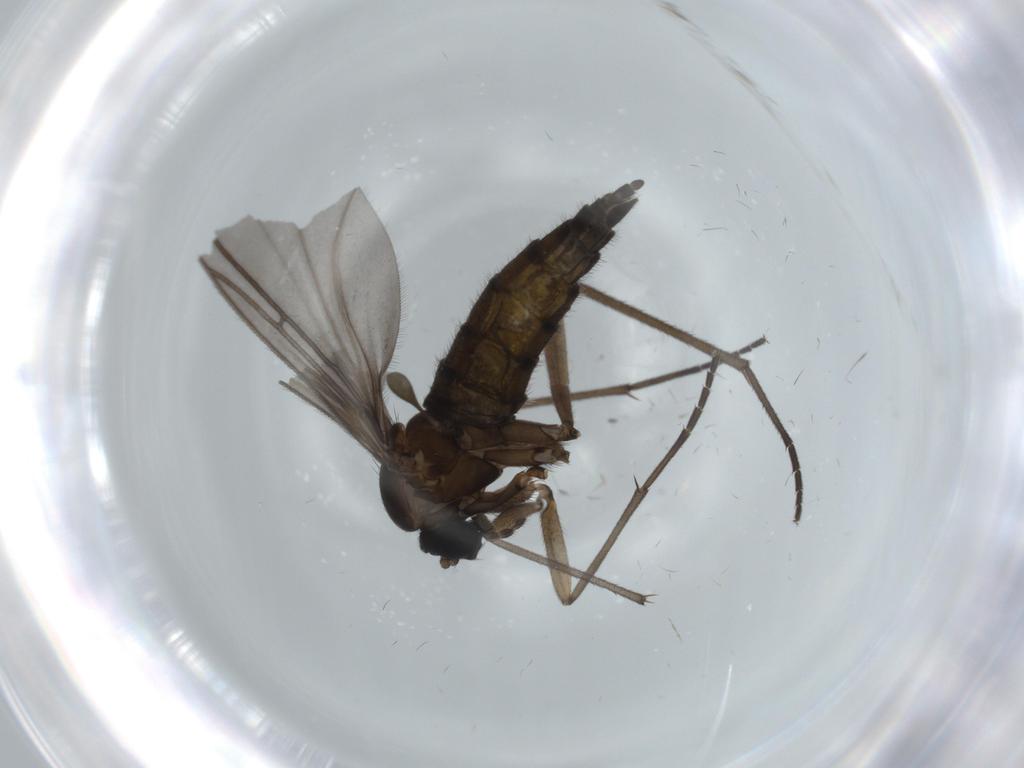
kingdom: Animalia
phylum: Arthropoda
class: Insecta
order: Diptera
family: Sciaridae
